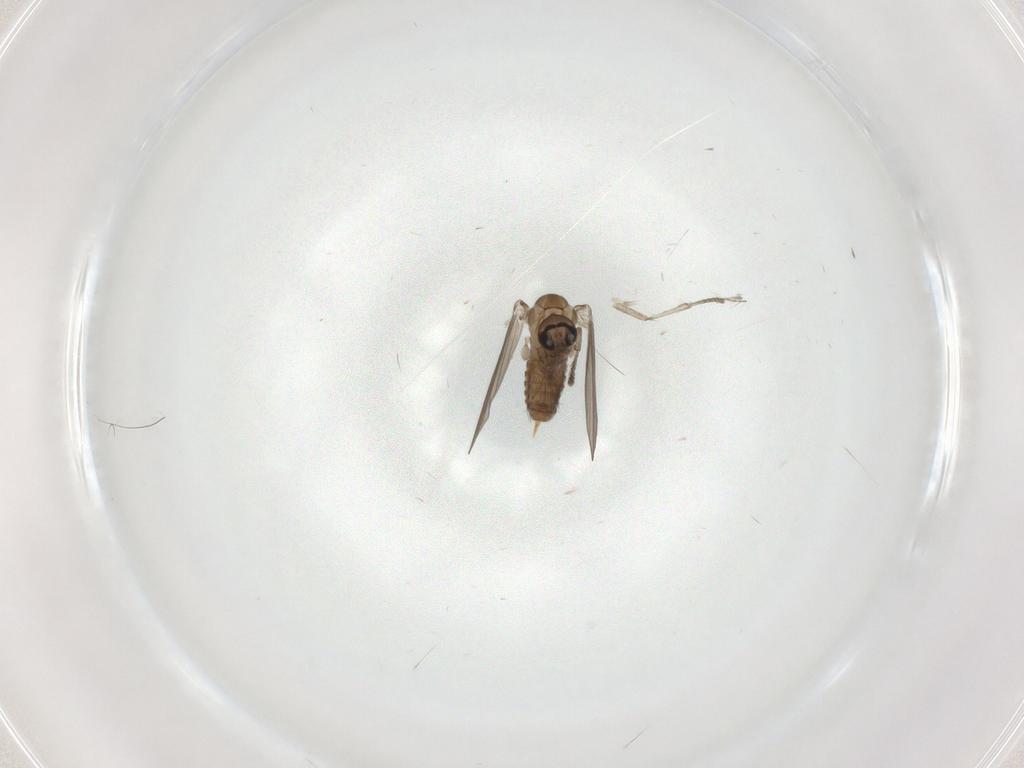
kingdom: Animalia
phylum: Arthropoda
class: Insecta
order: Diptera
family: Psychodidae
